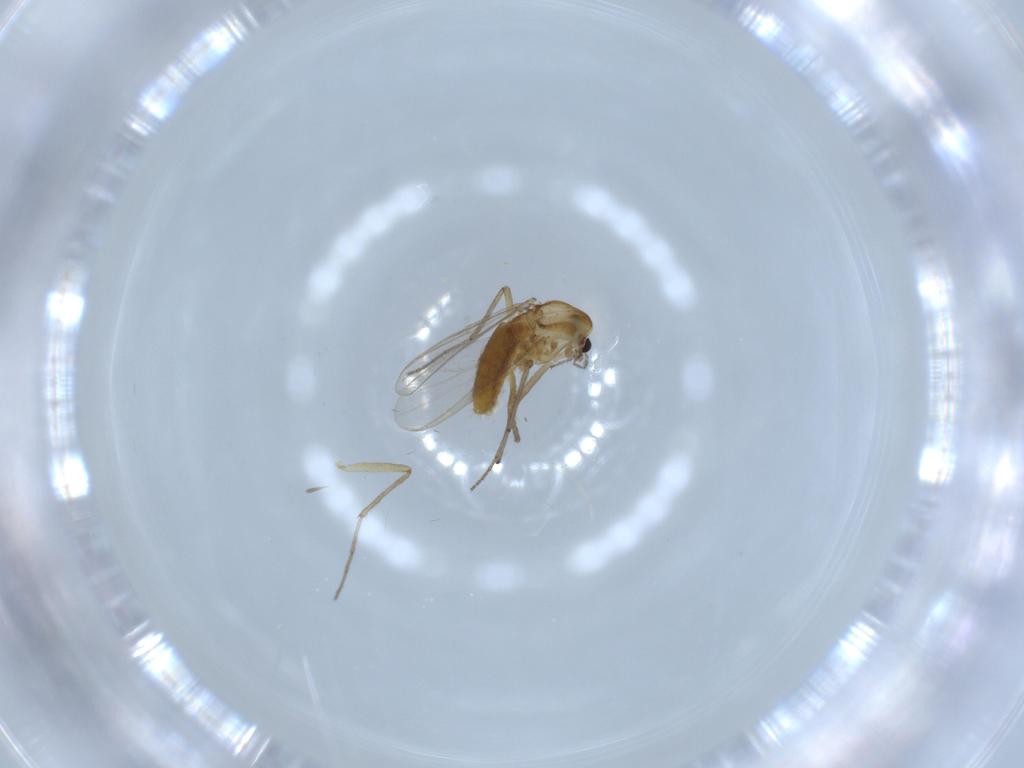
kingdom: Animalia
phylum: Arthropoda
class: Insecta
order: Diptera
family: Chironomidae
